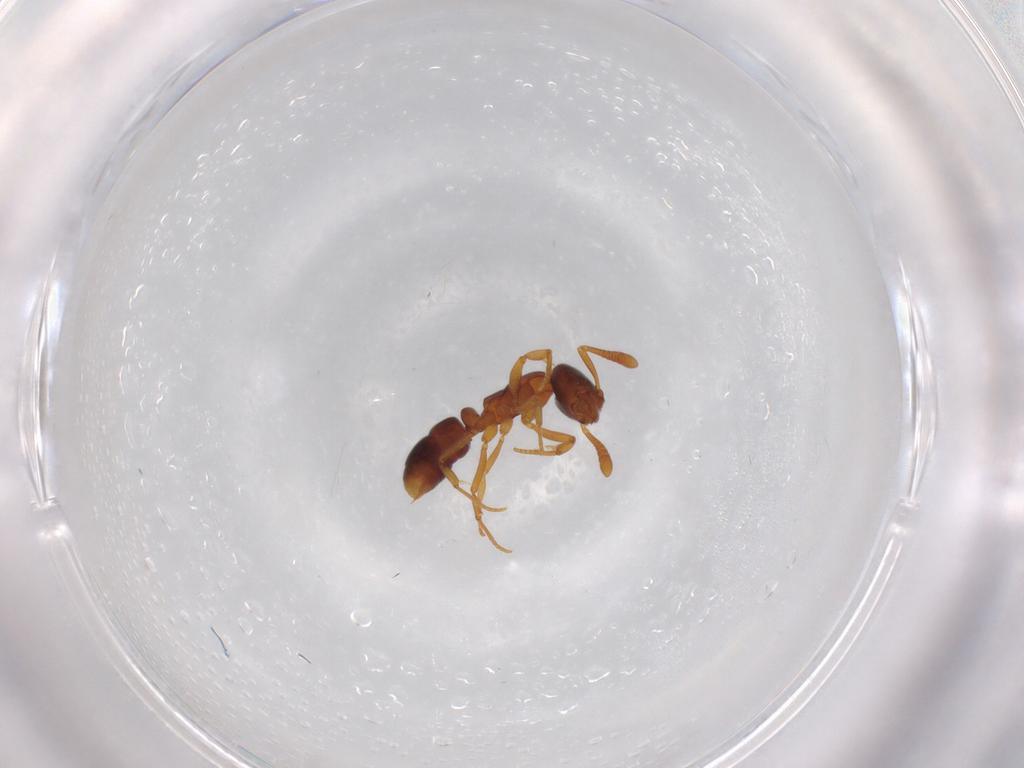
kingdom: Animalia
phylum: Arthropoda
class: Insecta
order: Hymenoptera
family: Formicidae
